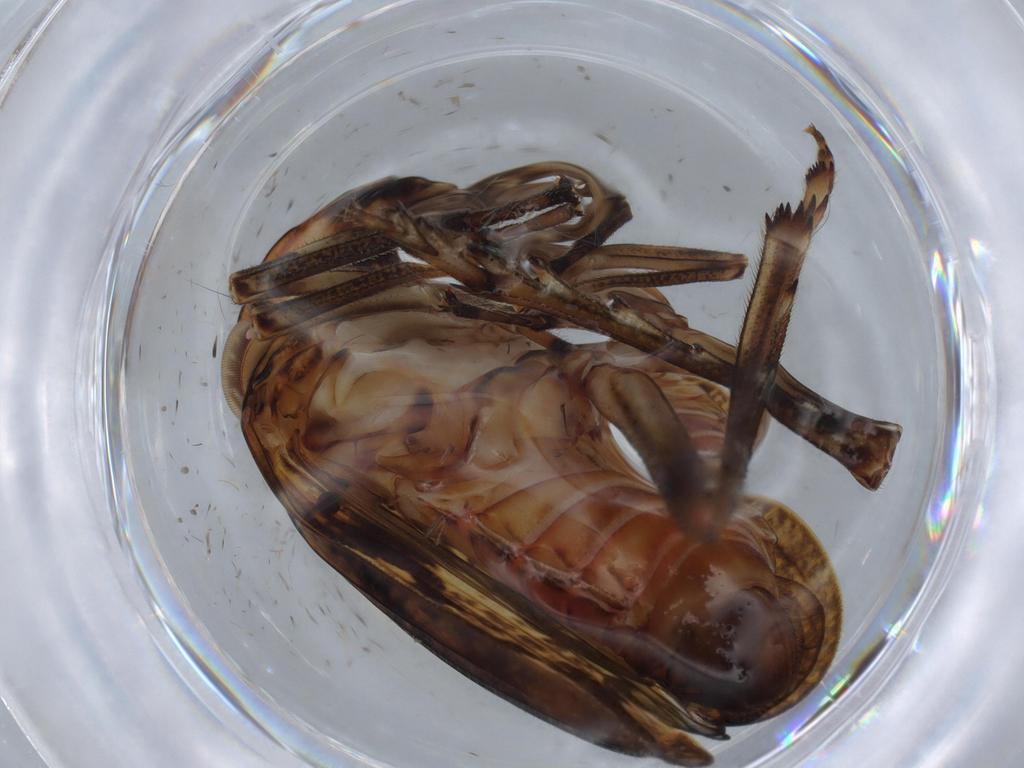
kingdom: Animalia
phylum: Arthropoda
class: Insecta
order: Hemiptera
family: Issidae
